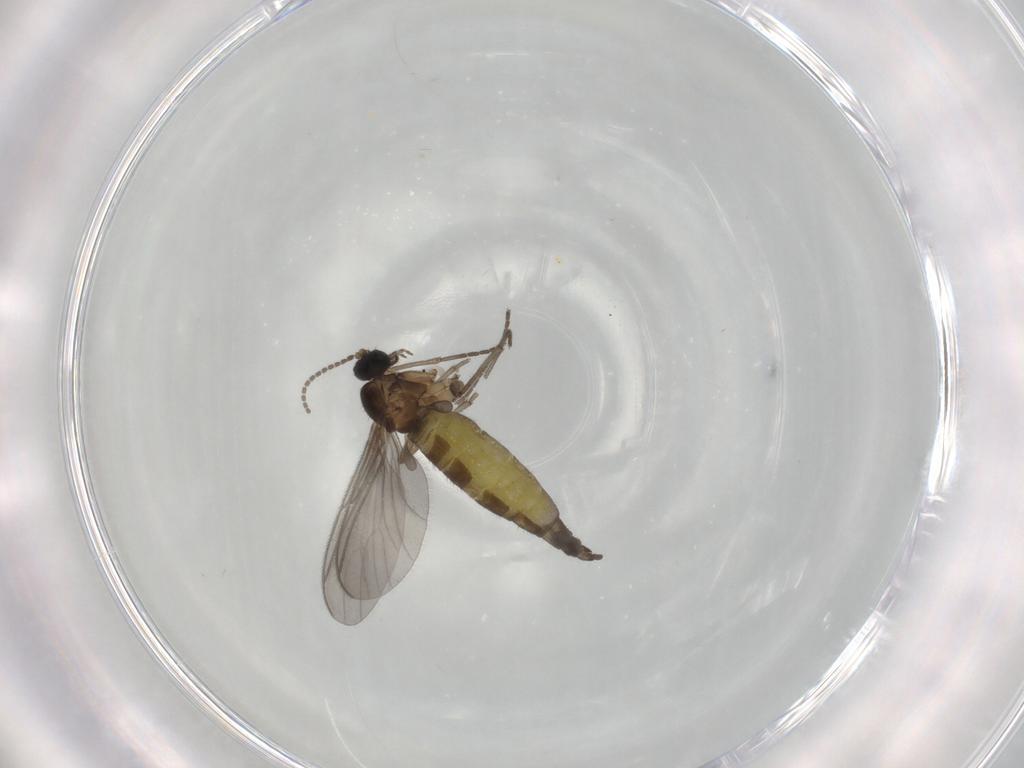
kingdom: Animalia
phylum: Arthropoda
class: Insecta
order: Diptera
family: Sciaridae
